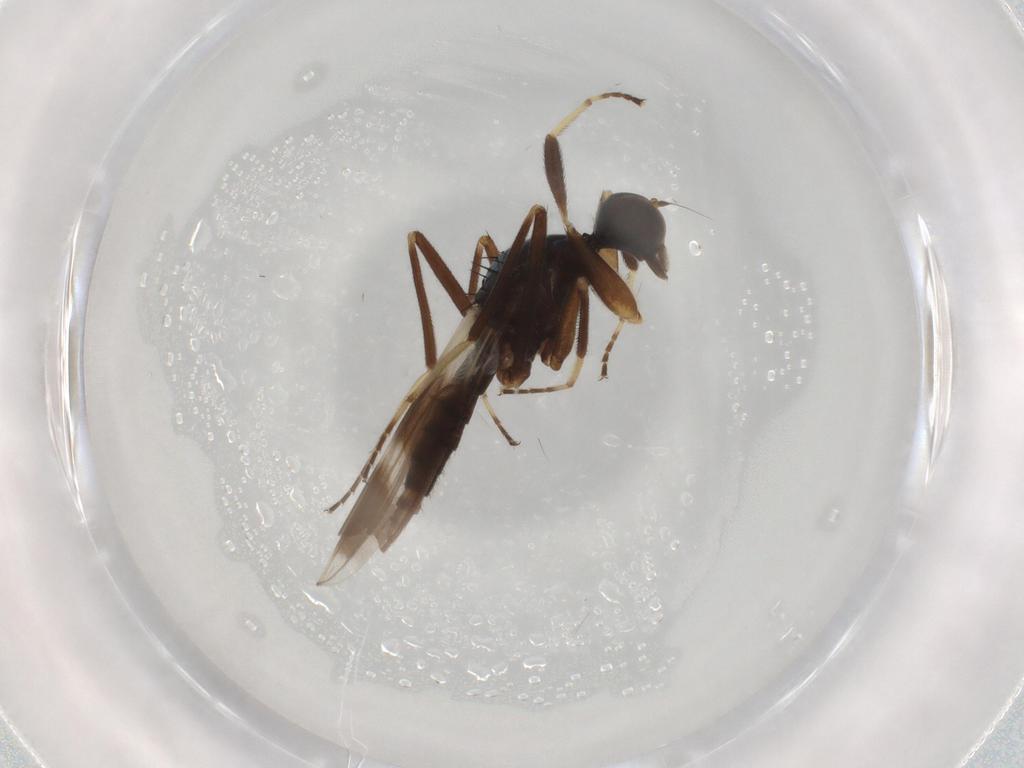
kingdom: Animalia
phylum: Arthropoda
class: Insecta
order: Diptera
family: Hybotidae
